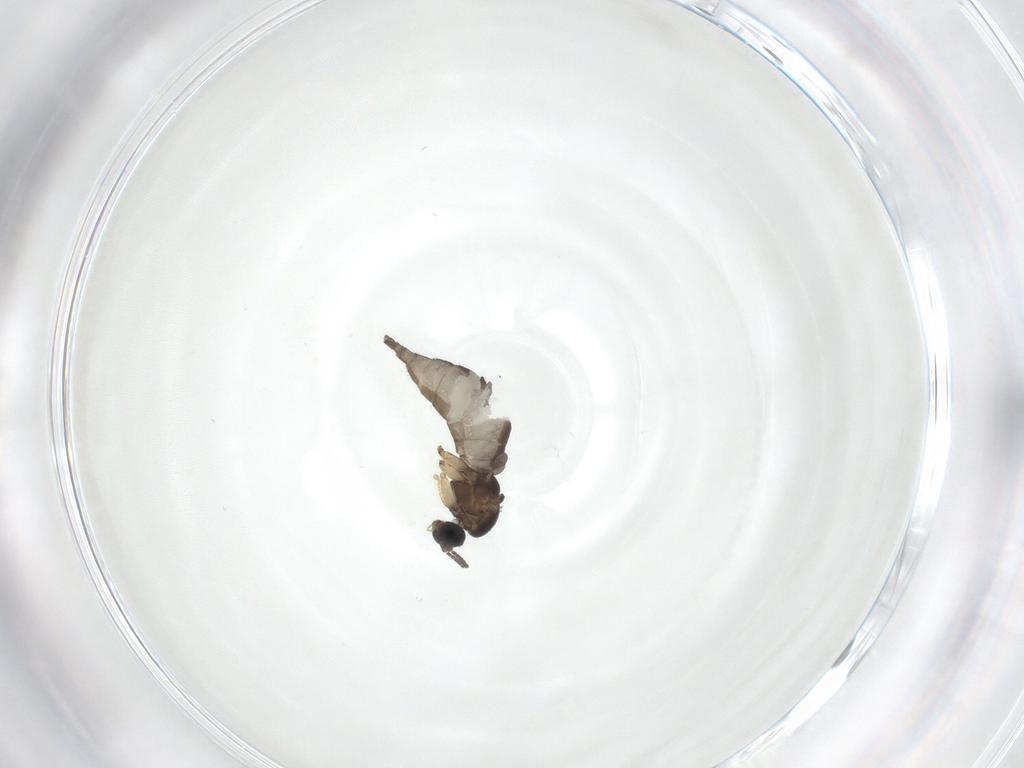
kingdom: Animalia
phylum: Arthropoda
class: Insecta
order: Diptera
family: Sciaridae
